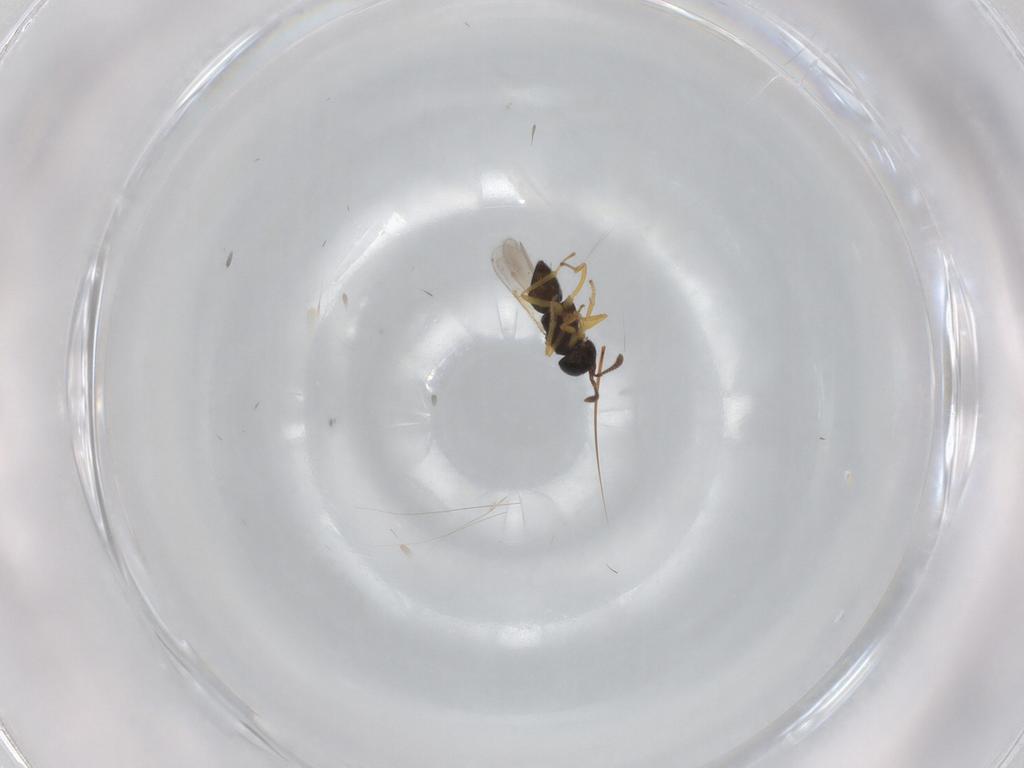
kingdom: Animalia
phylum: Arthropoda
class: Insecta
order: Hymenoptera
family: Encyrtidae
